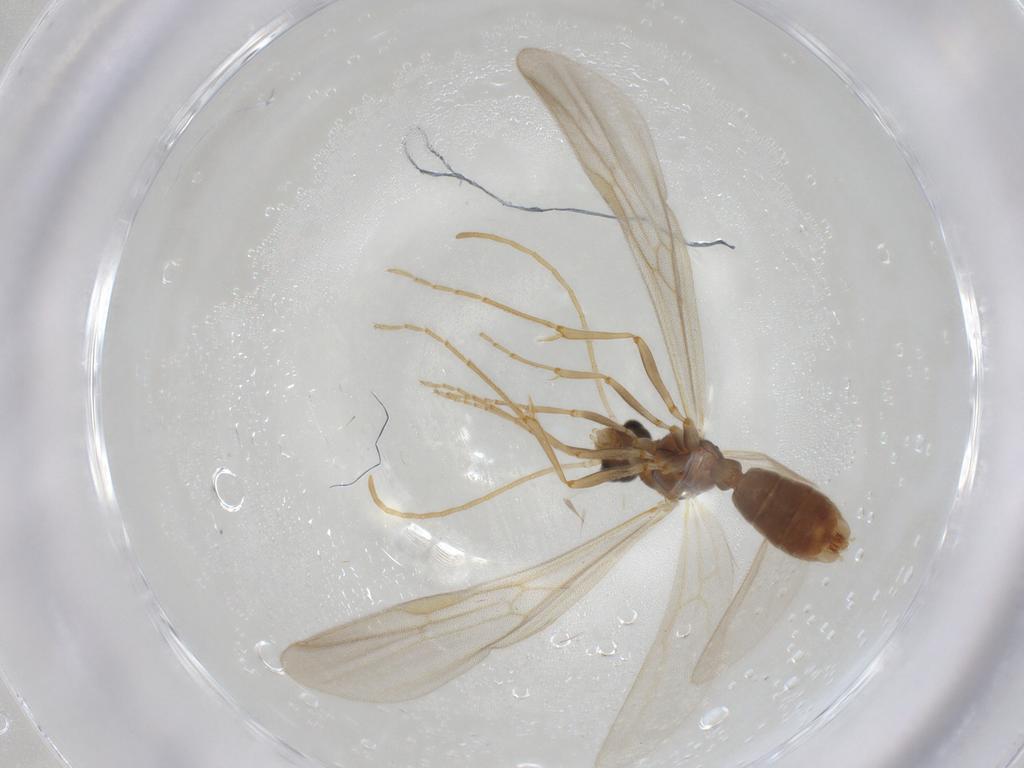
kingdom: Animalia
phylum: Arthropoda
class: Insecta
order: Hymenoptera
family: Formicidae
